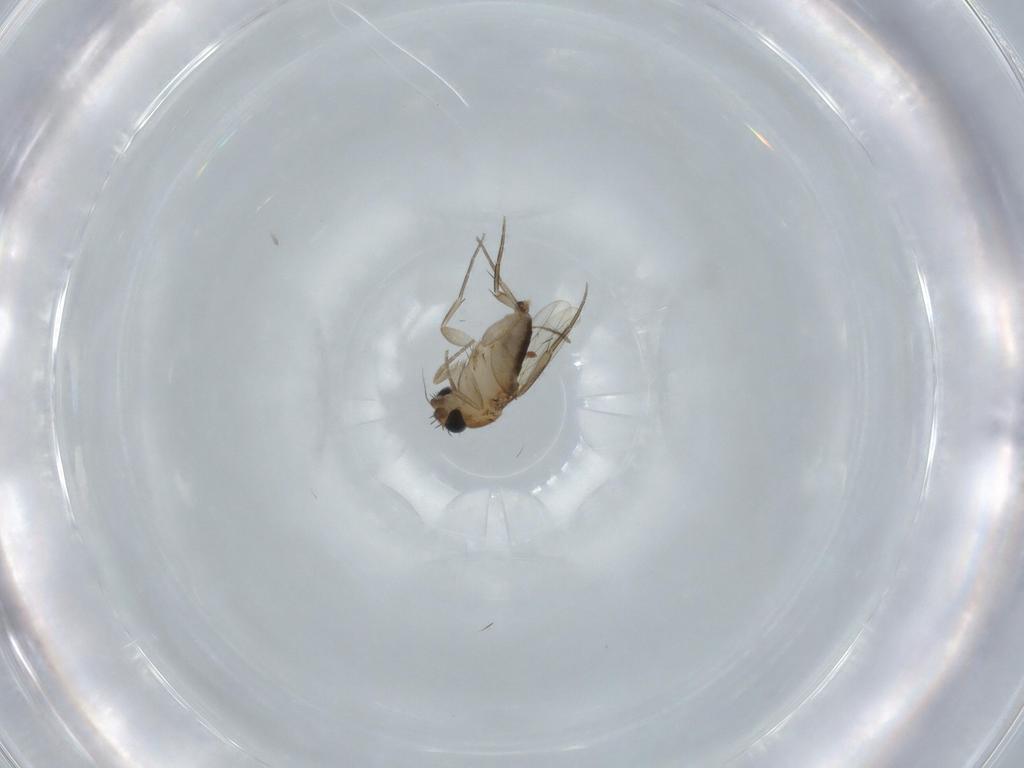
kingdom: Animalia
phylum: Arthropoda
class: Insecta
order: Diptera
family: Phoridae
